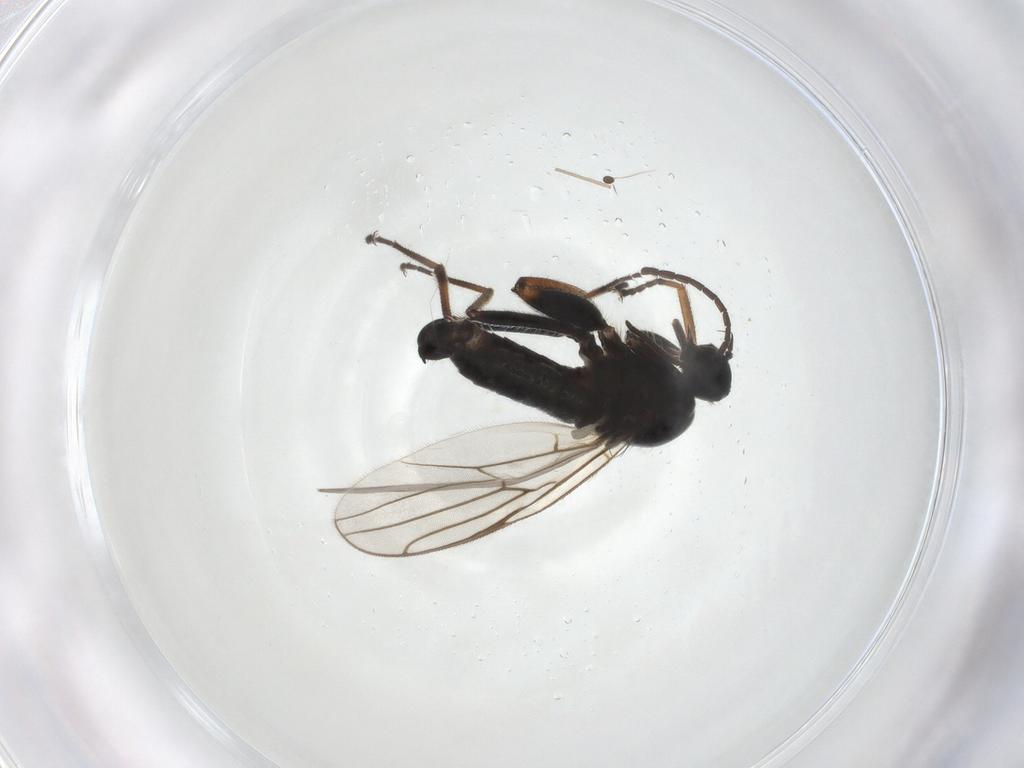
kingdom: Animalia
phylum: Arthropoda
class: Insecta
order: Diptera
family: Hybotidae
